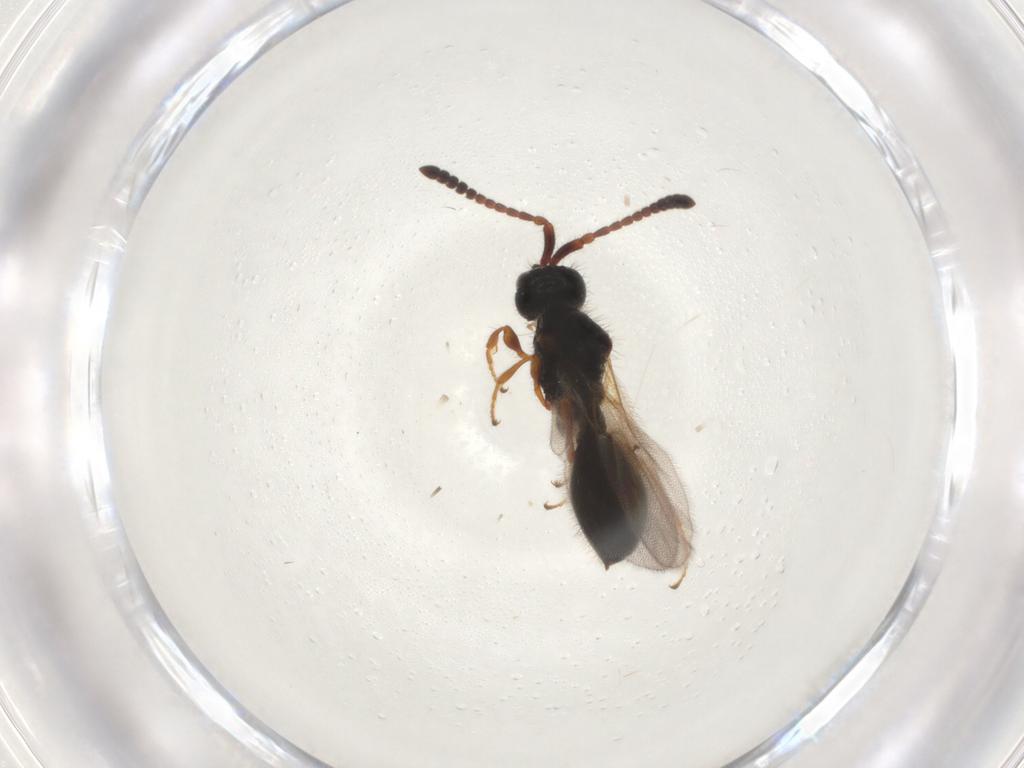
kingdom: Animalia
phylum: Arthropoda
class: Insecta
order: Hymenoptera
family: Diapriidae
